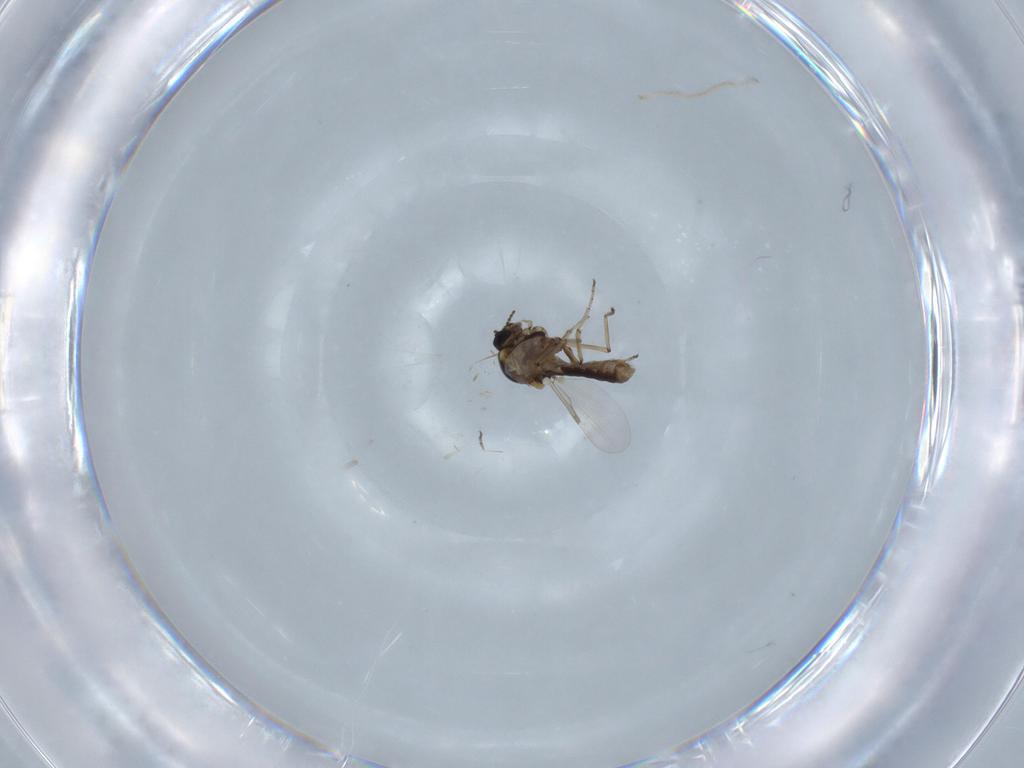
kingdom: Animalia
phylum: Arthropoda
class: Insecta
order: Diptera
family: Ceratopogonidae
